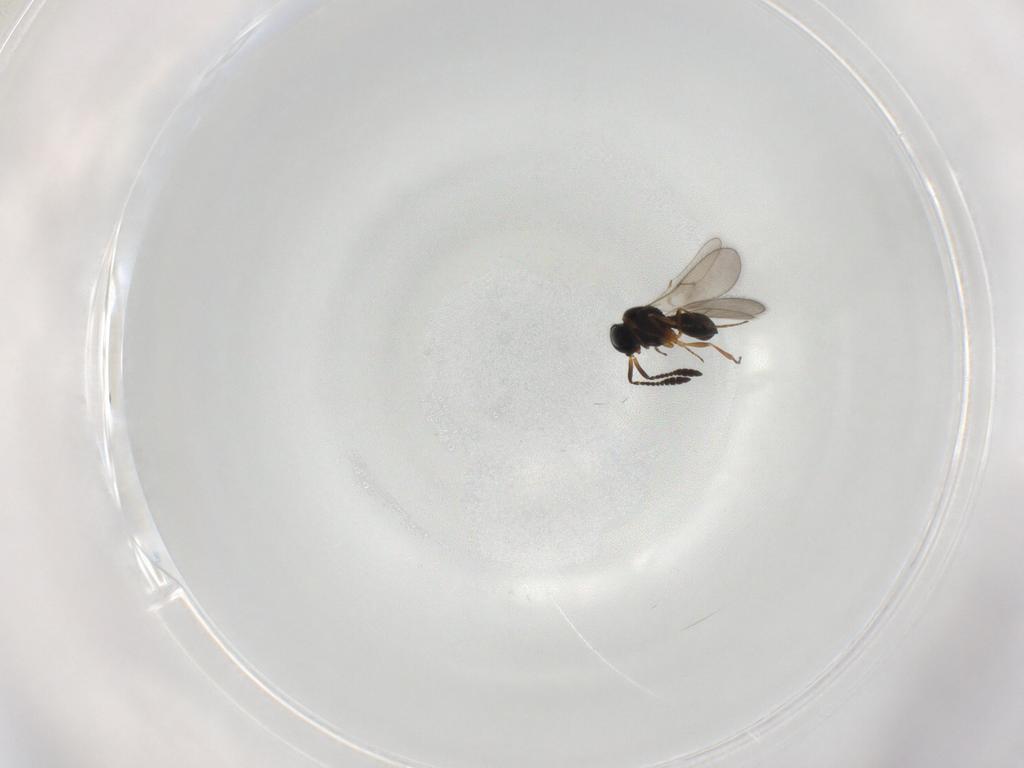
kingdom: Animalia
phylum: Arthropoda
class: Insecta
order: Hymenoptera
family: Scelionidae
